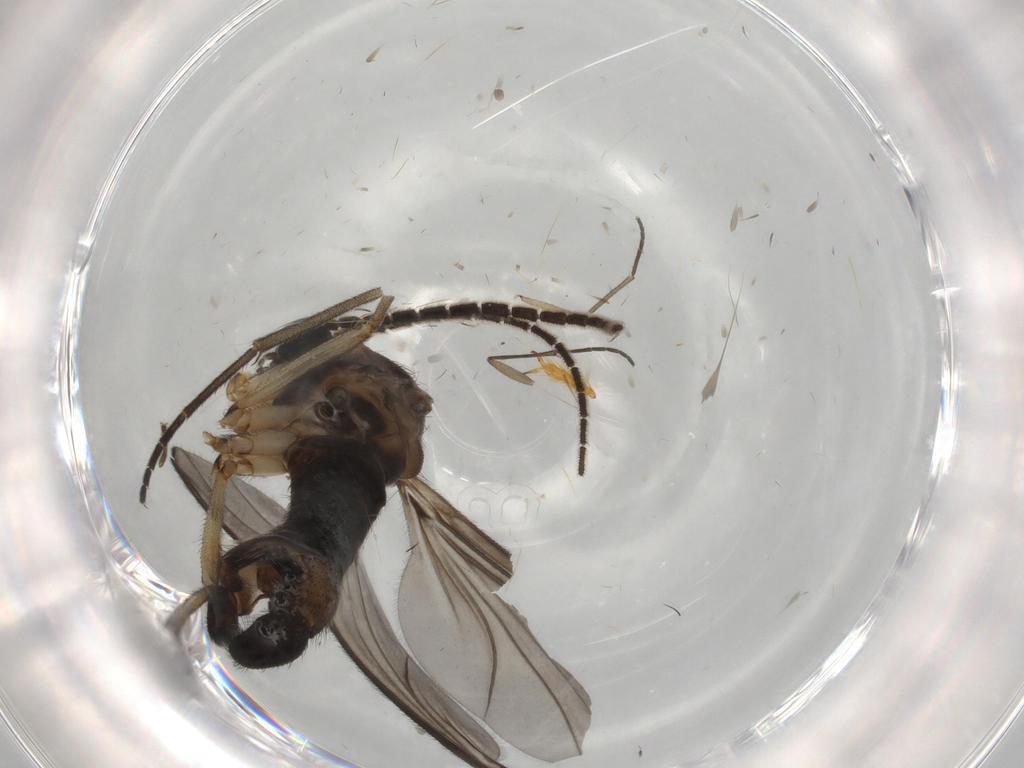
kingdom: Animalia
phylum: Arthropoda
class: Insecta
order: Diptera
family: Sciaridae
